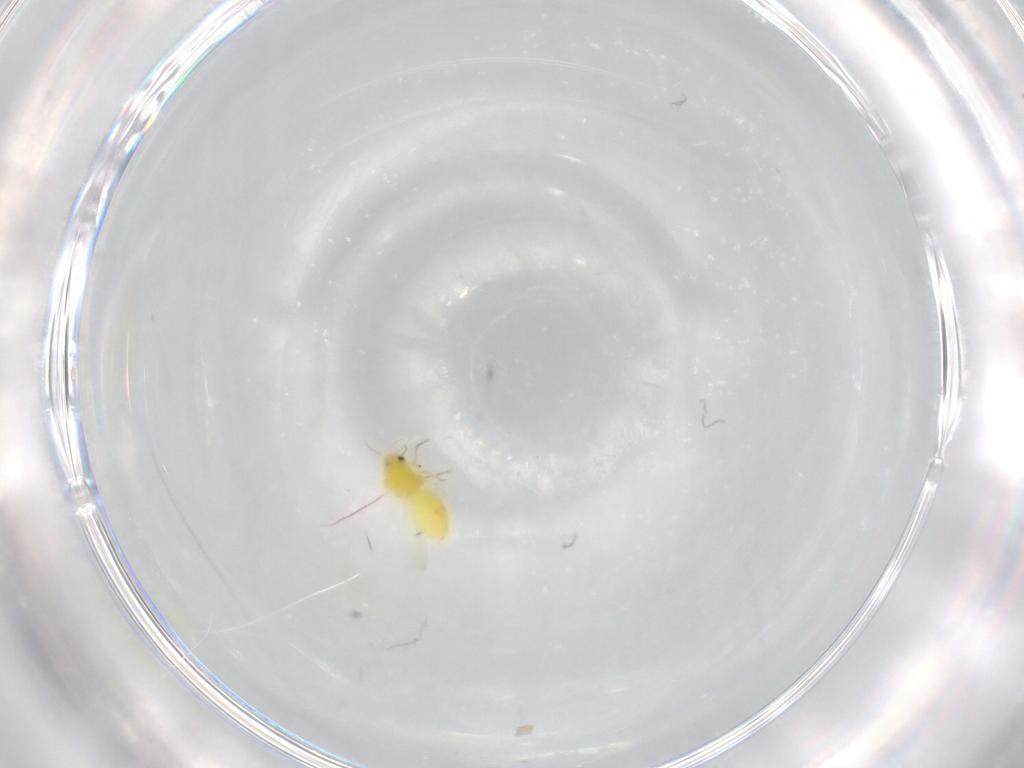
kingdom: Animalia
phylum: Arthropoda
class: Insecta
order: Hemiptera
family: Aleyrodidae
